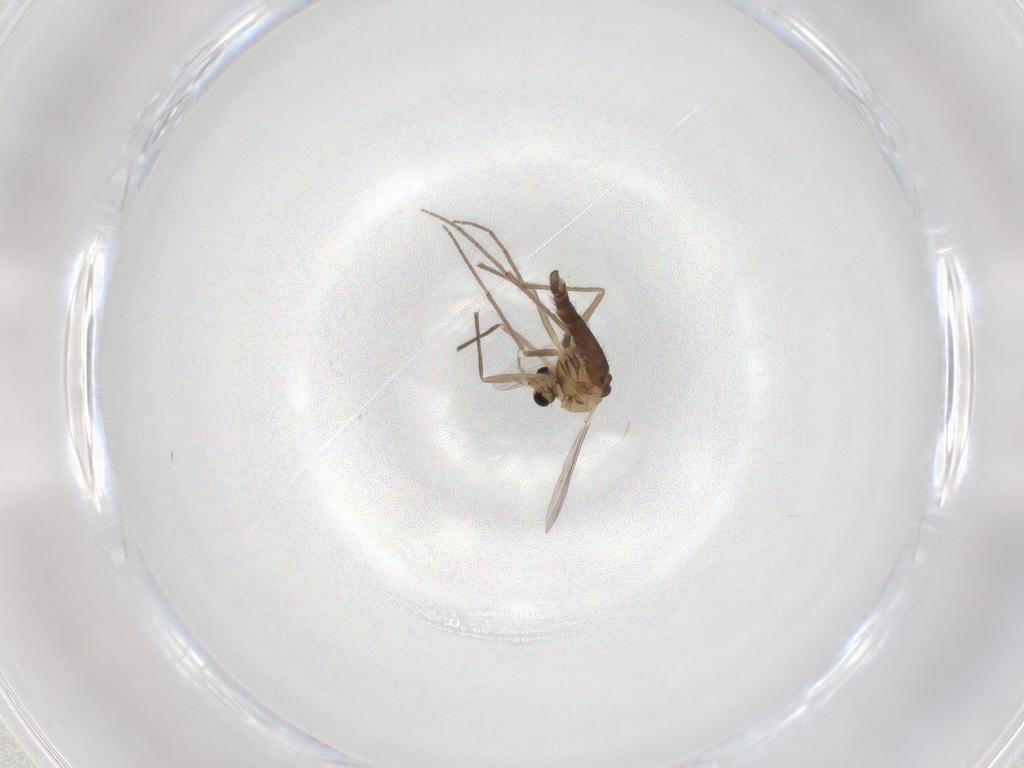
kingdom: Animalia
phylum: Arthropoda
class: Insecta
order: Diptera
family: Chironomidae
